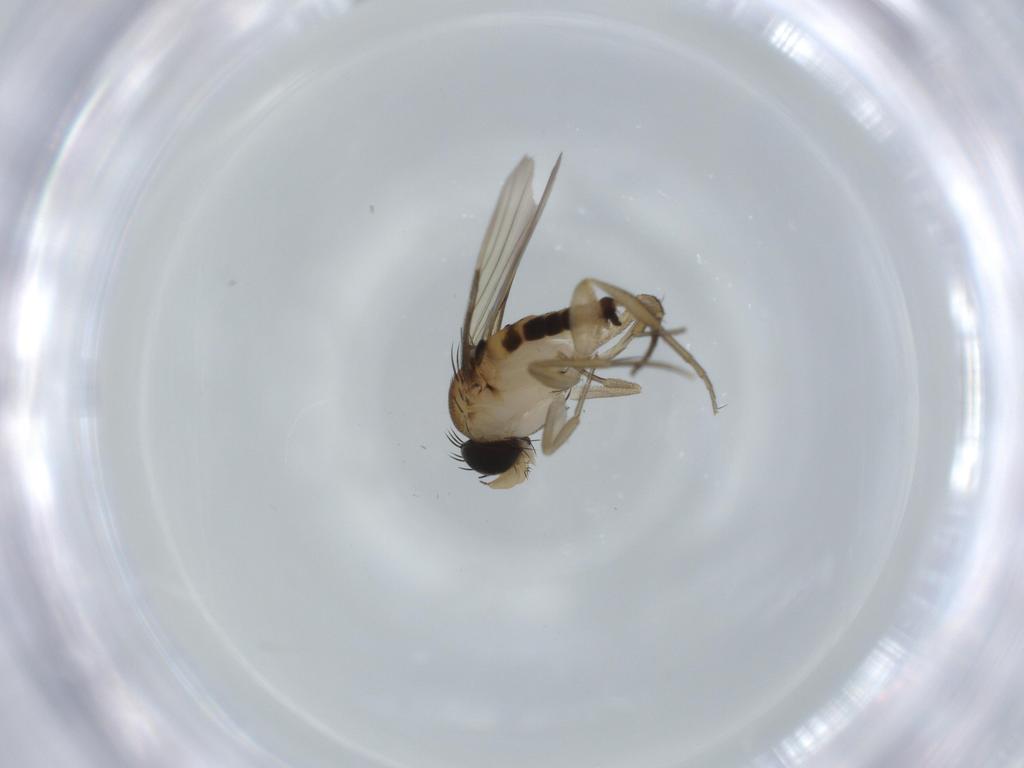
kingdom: Animalia
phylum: Arthropoda
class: Insecta
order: Diptera
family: Phoridae
